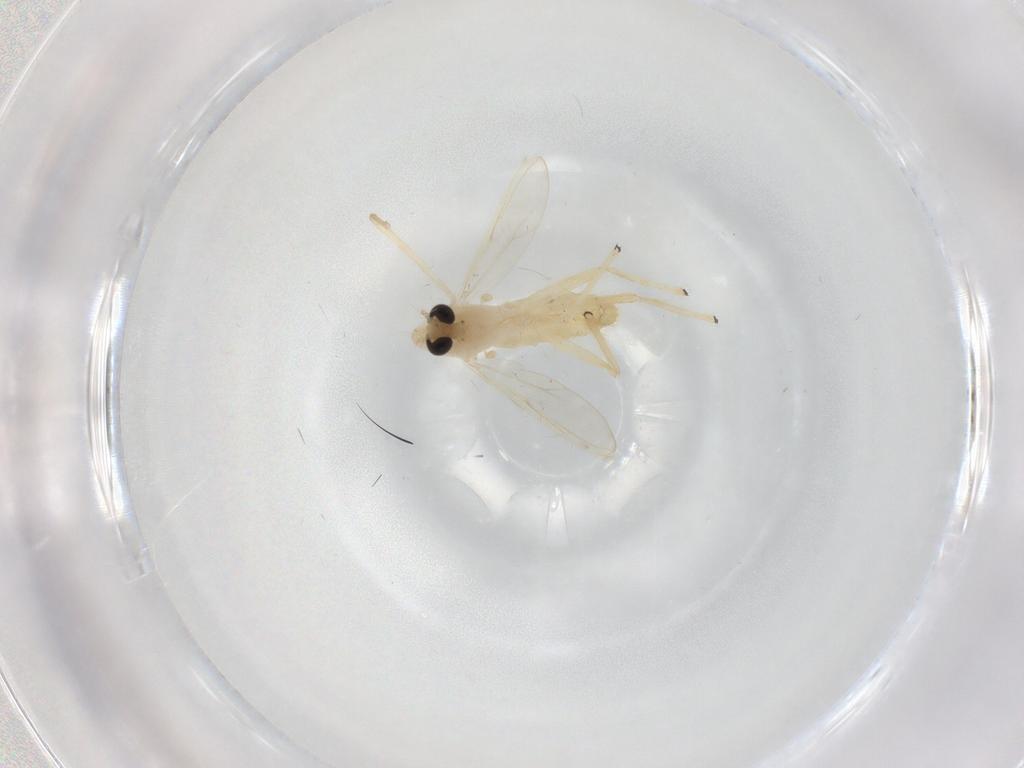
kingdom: Animalia
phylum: Arthropoda
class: Insecta
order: Diptera
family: Chironomidae
